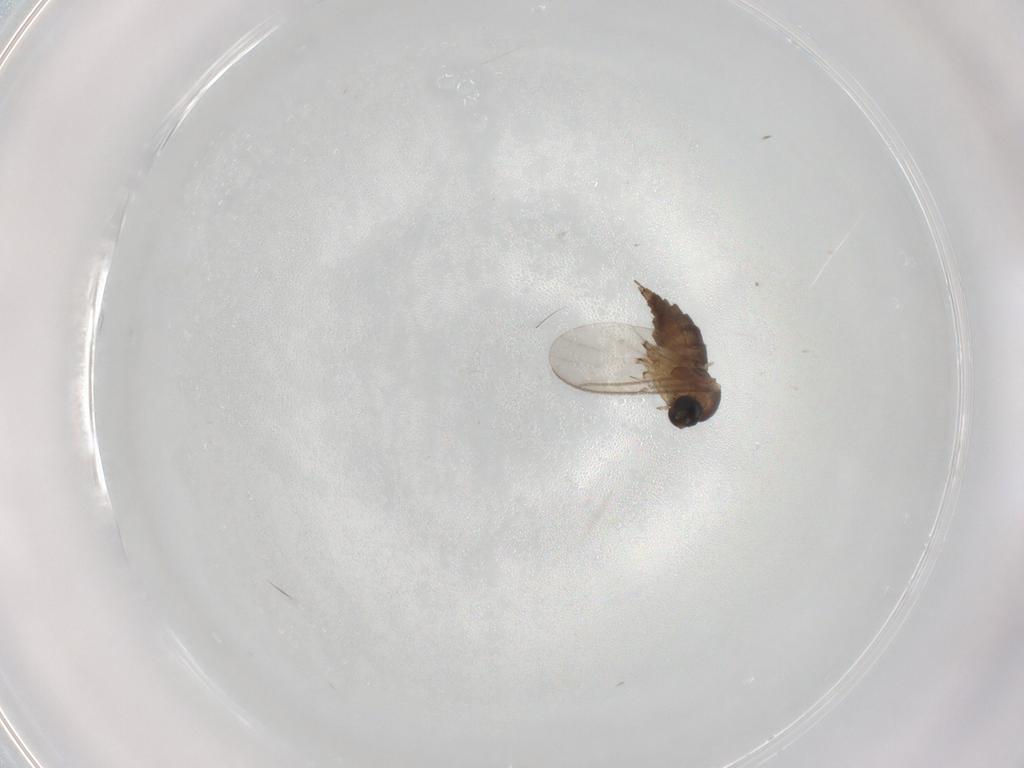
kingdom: Animalia
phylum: Arthropoda
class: Insecta
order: Diptera
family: Sciaridae
